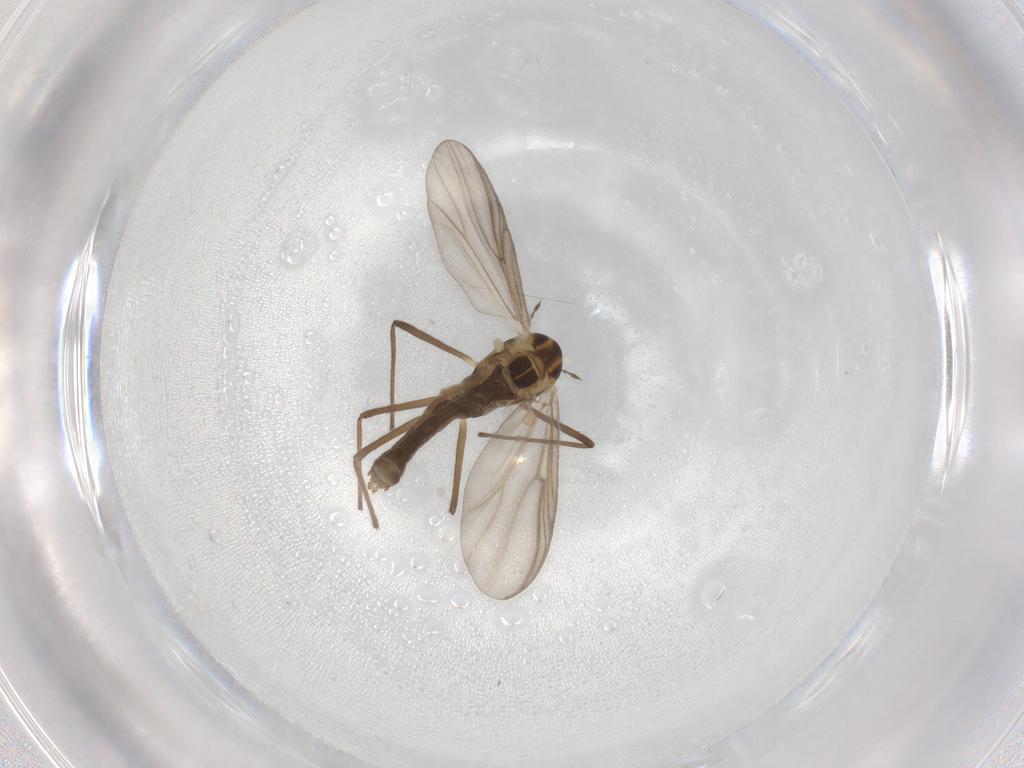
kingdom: Animalia
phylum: Arthropoda
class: Insecta
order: Diptera
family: Chironomidae
